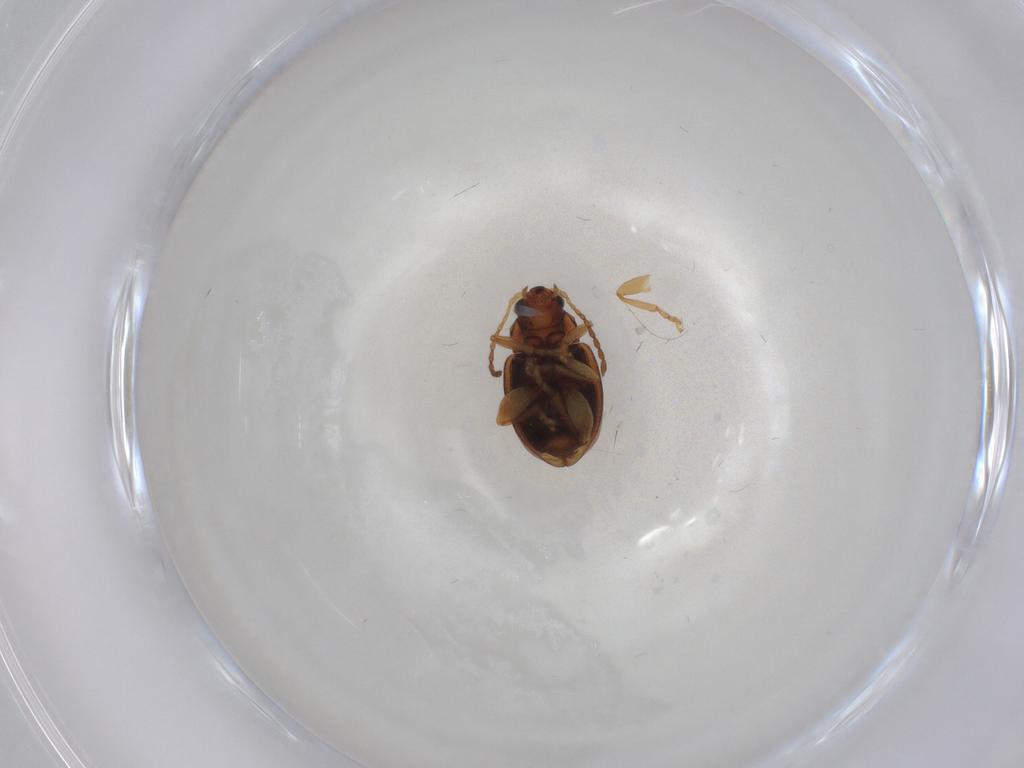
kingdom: Animalia
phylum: Arthropoda
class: Insecta
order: Coleoptera
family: Chrysomelidae
